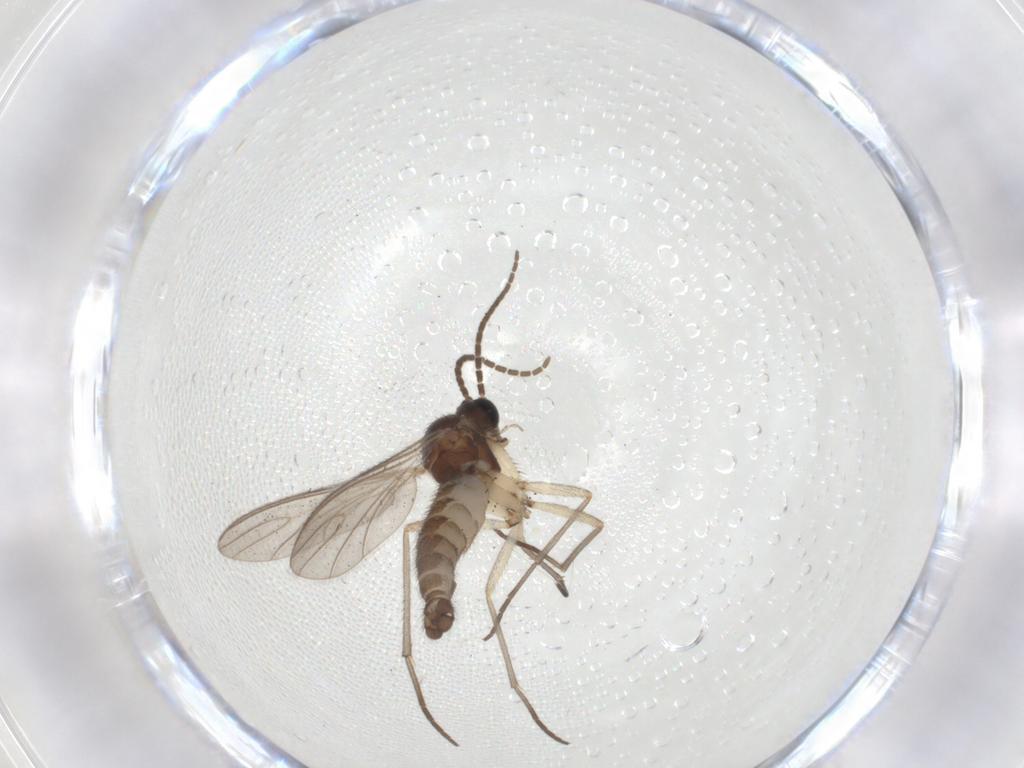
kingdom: Animalia
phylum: Arthropoda
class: Insecta
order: Diptera
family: Sciaridae
